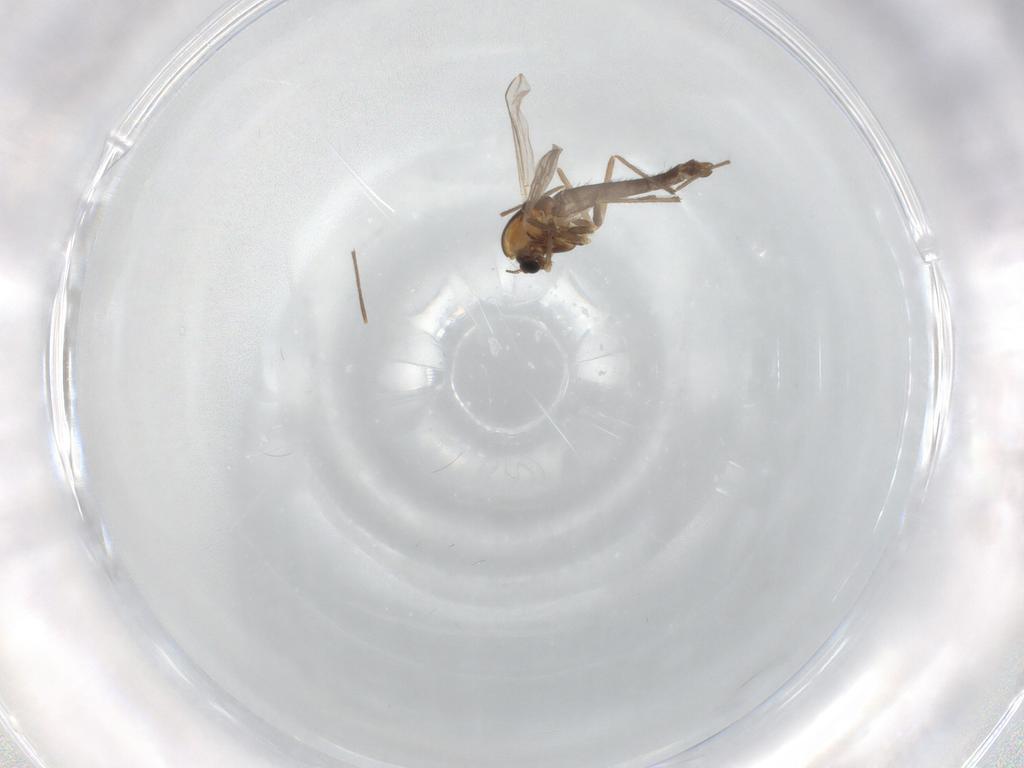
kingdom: Animalia
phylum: Arthropoda
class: Insecta
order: Diptera
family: Chironomidae
